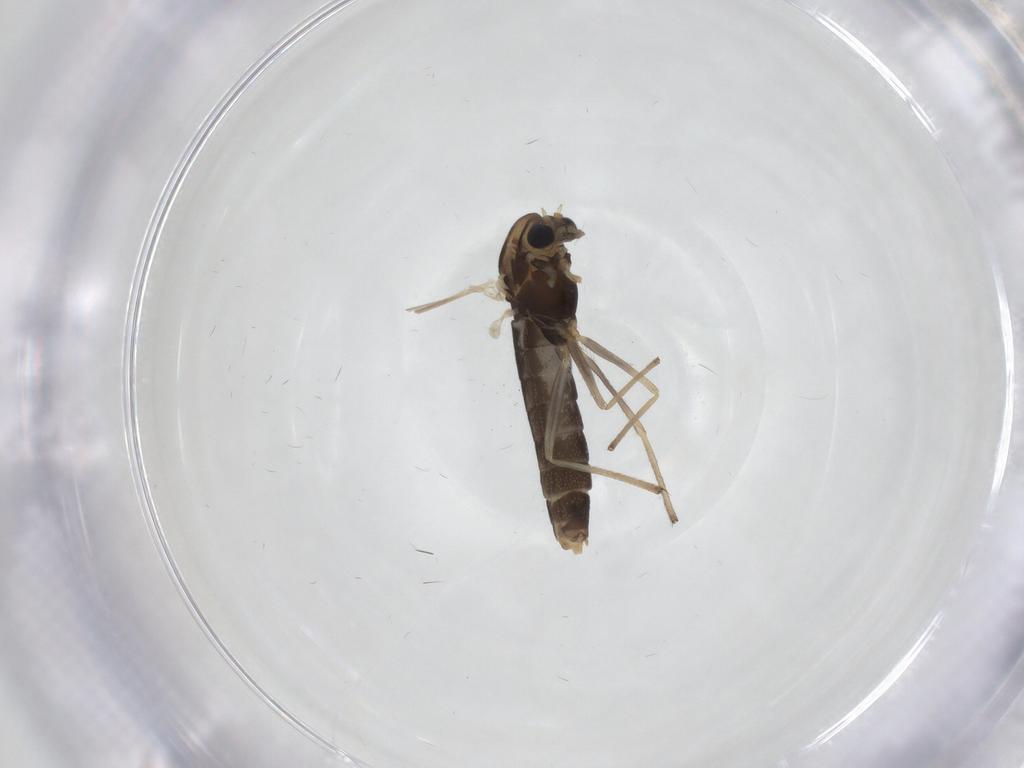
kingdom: Animalia
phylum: Arthropoda
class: Insecta
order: Diptera
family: Chironomidae
